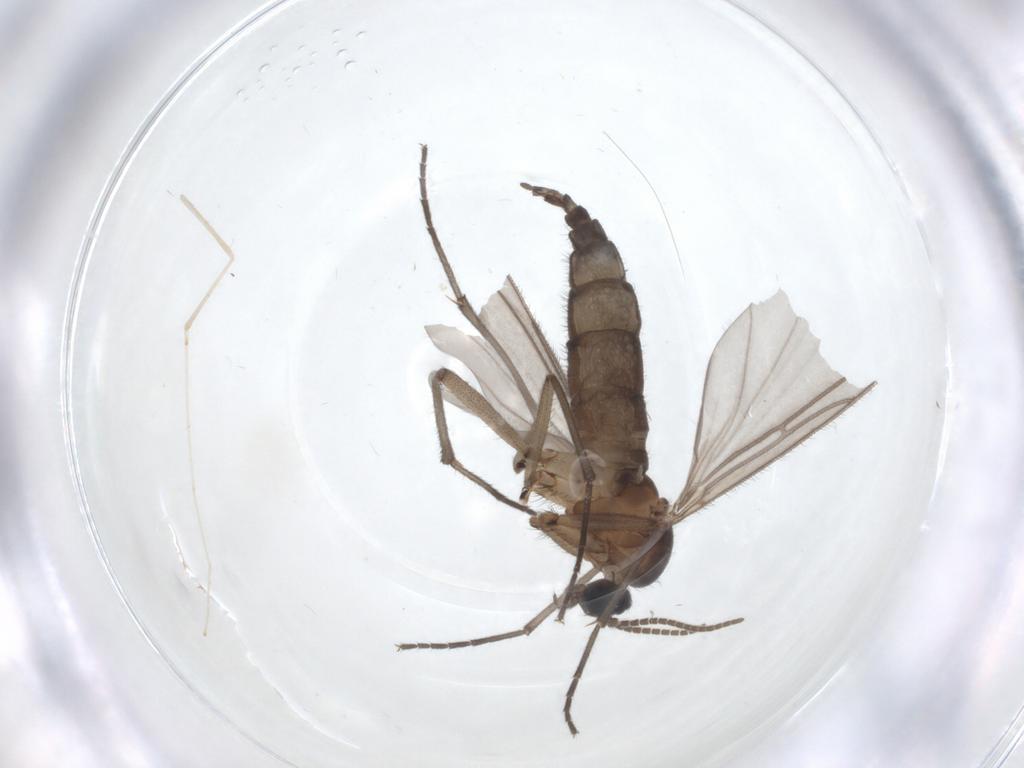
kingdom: Animalia
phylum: Arthropoda
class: Insecta
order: Diptera
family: Cecidomyiidae
